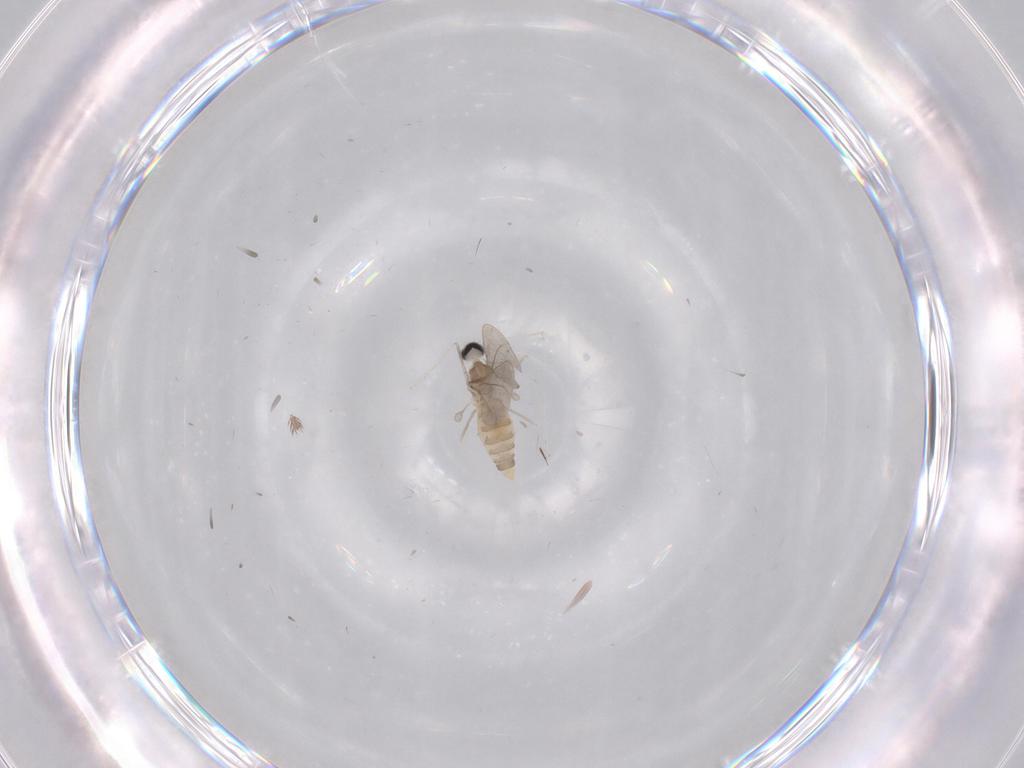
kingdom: Animalia
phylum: Arthropoda
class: Insecta
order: Diptera
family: Cecidomyiidae
